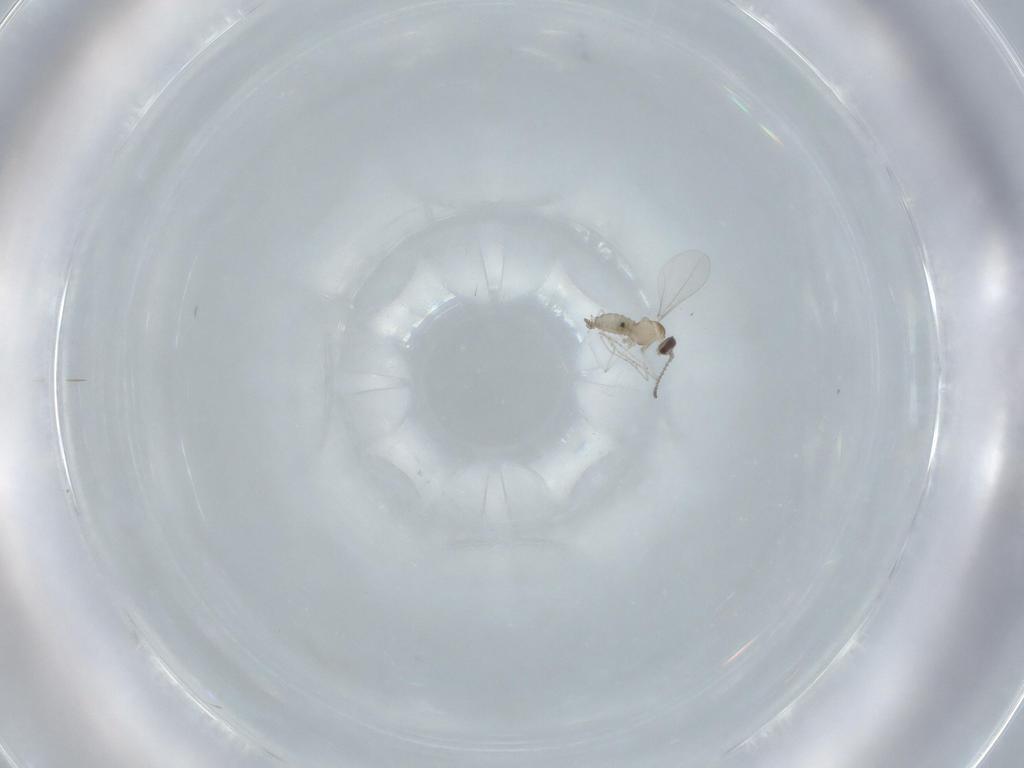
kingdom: Animalia
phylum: Arthropoda
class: Insecta
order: Diptera
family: Cecidomyiidae
